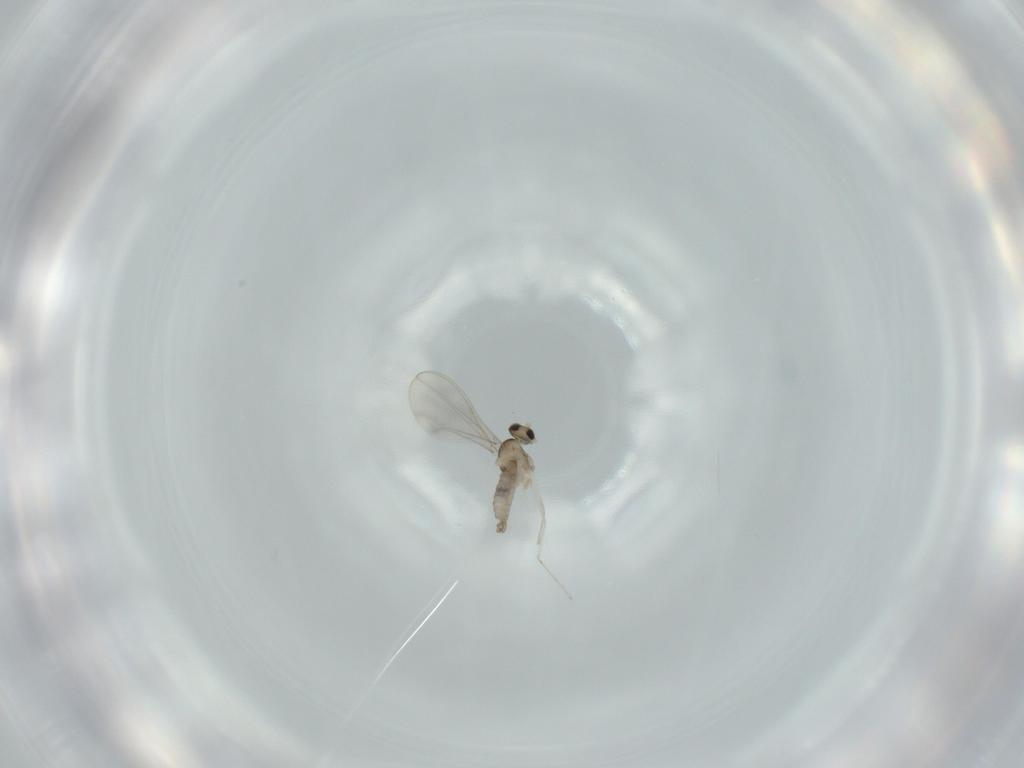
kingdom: Animalia
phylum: Arthropoda
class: Insecta
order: Diptera
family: Cecidomyiidae
